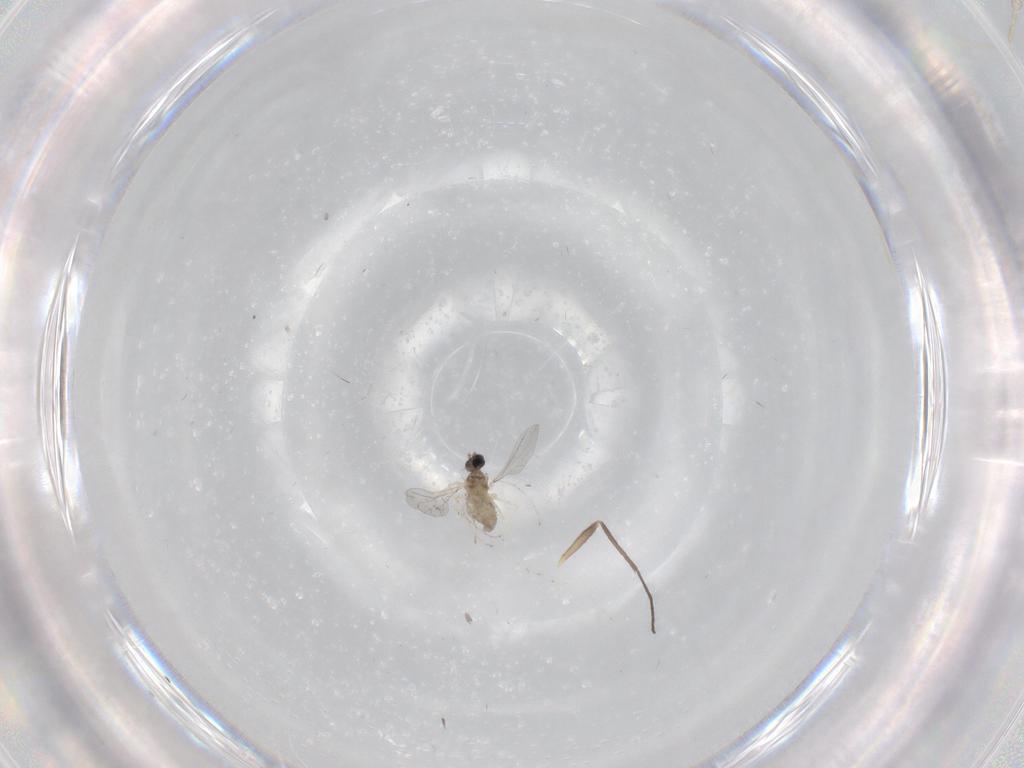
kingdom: Animalia
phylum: Arthropoda
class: Insecta
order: Diptera
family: Cecidomyiidae
